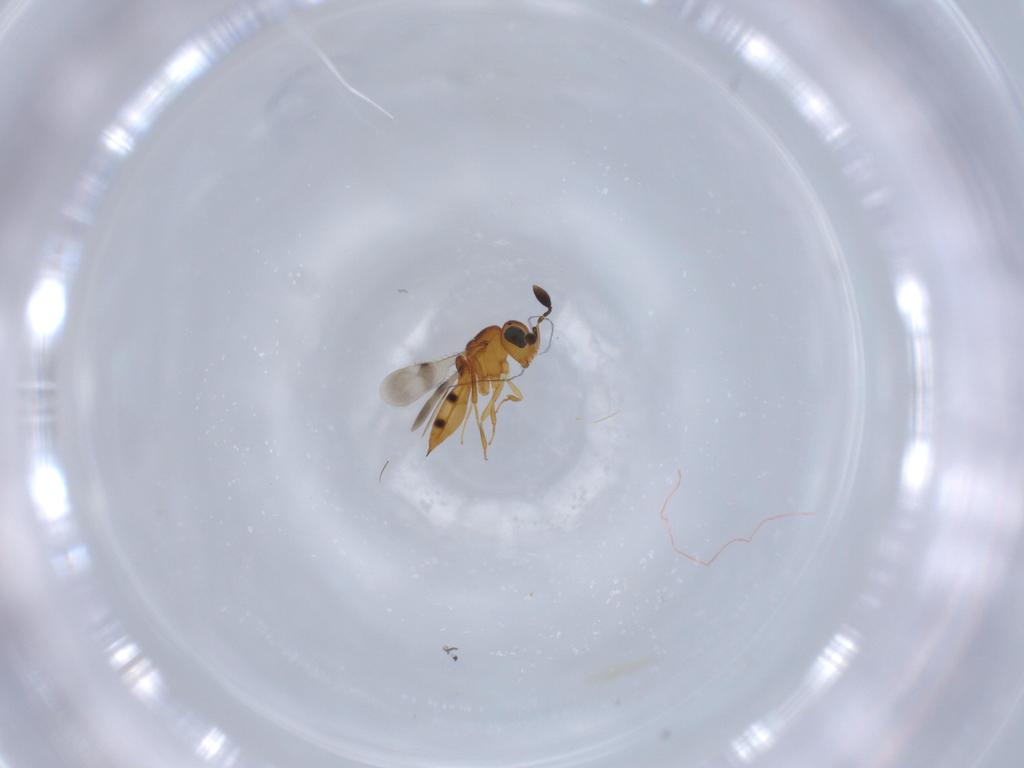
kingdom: Animalia
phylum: Arthropoda
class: Insecta
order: Hymenoptera
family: Scelionidae
